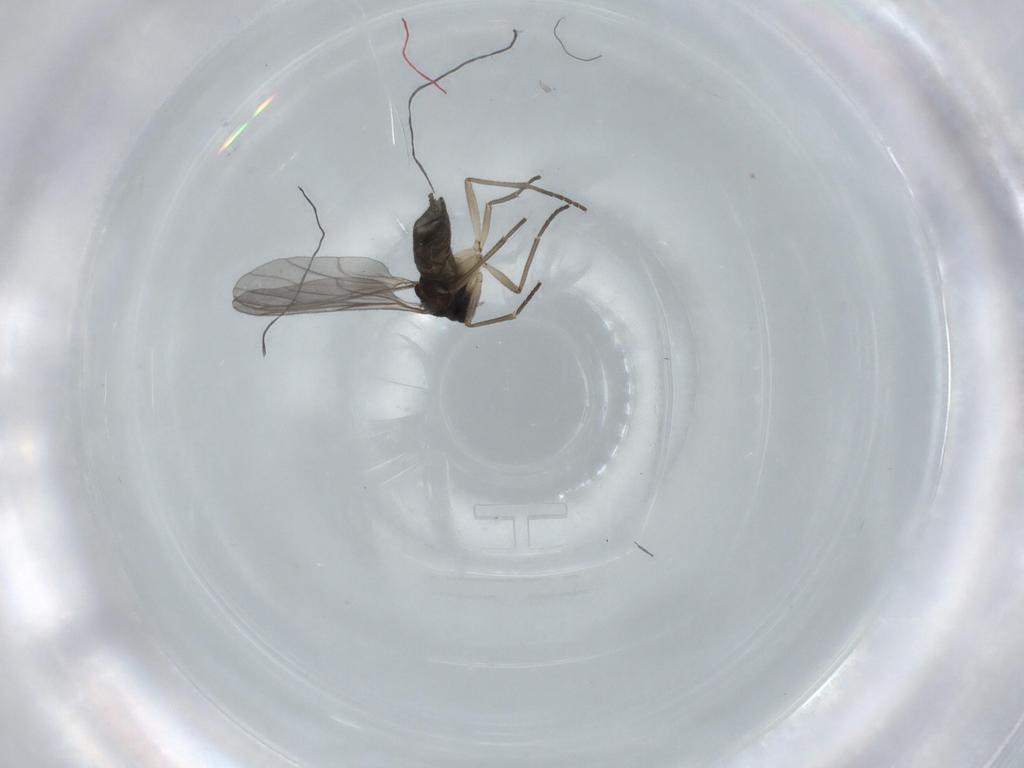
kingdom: Animalia
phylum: Arthropoda
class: Insecta
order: Diptera
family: Sciaridae
